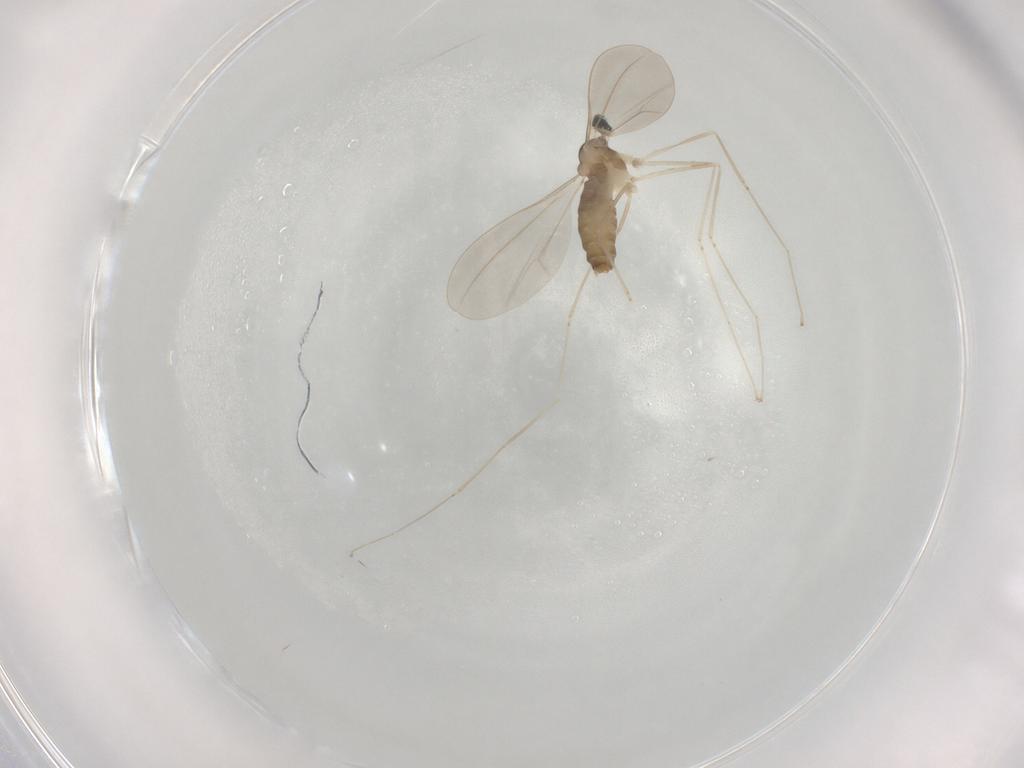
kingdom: Animalia
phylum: Arthropoda
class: Insecta
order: Diptera
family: Cecidomyiidae
